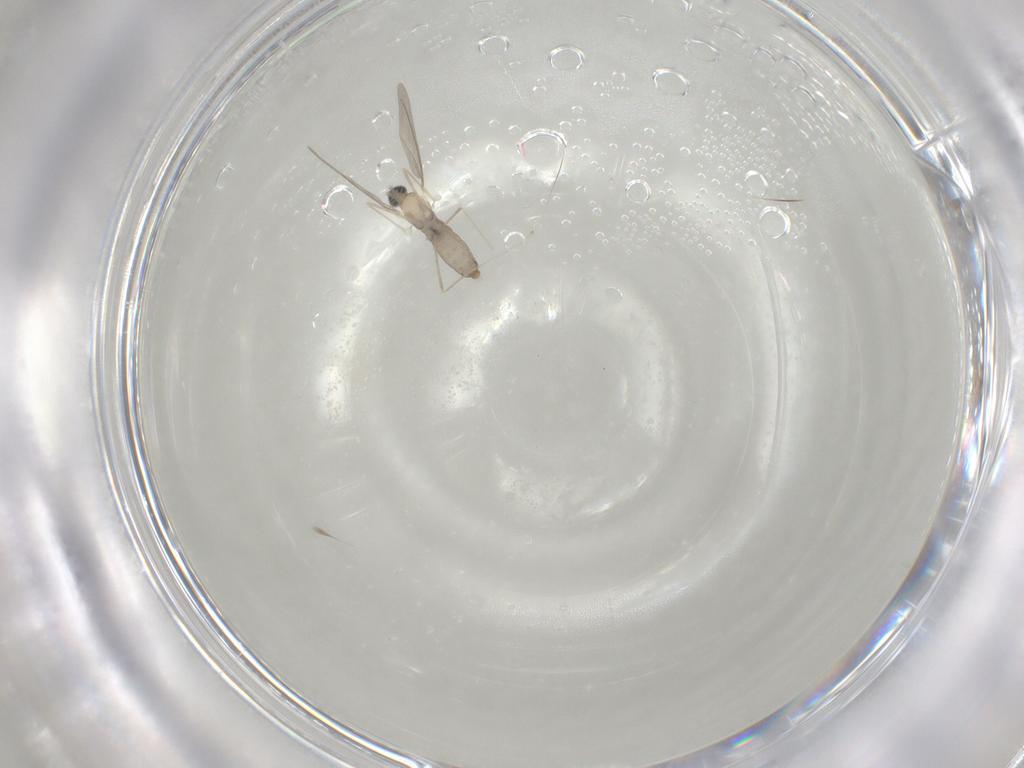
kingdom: Animalia
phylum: Arthropoda
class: Insecta
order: Diptera
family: Cecidomyiidae
